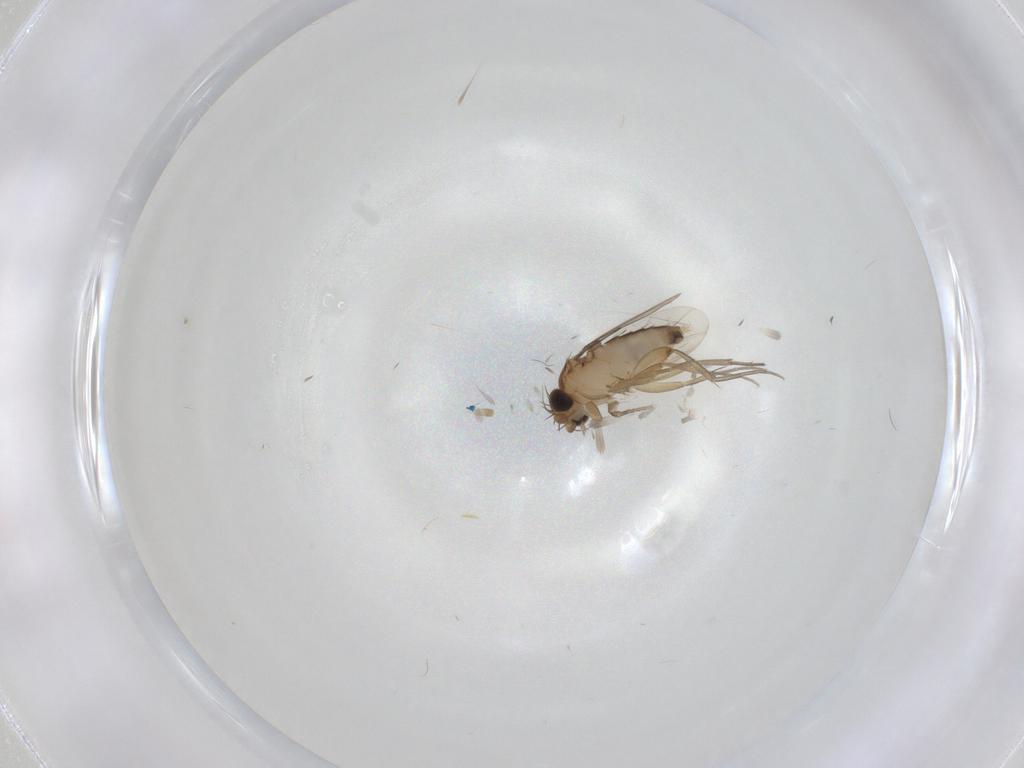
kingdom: Animalia
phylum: Arthropoda
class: Insecta
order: Diptera
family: Phoridae
